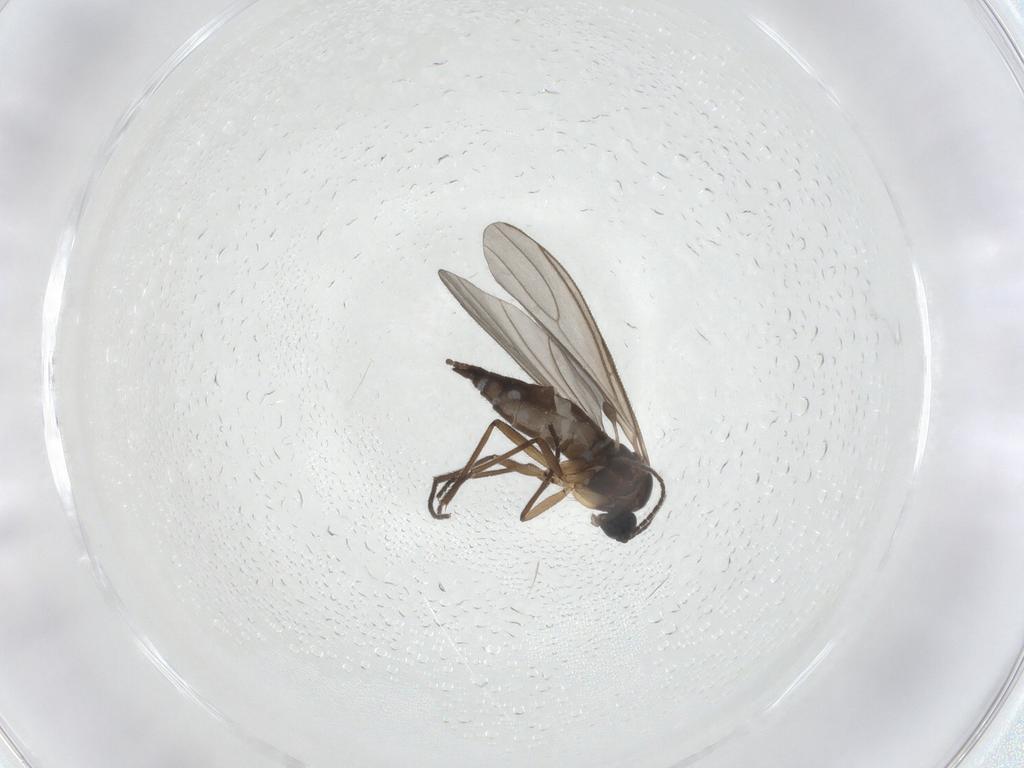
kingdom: Animalia
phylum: Arthropoda
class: Insecta
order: Diptera
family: Sciaridae
